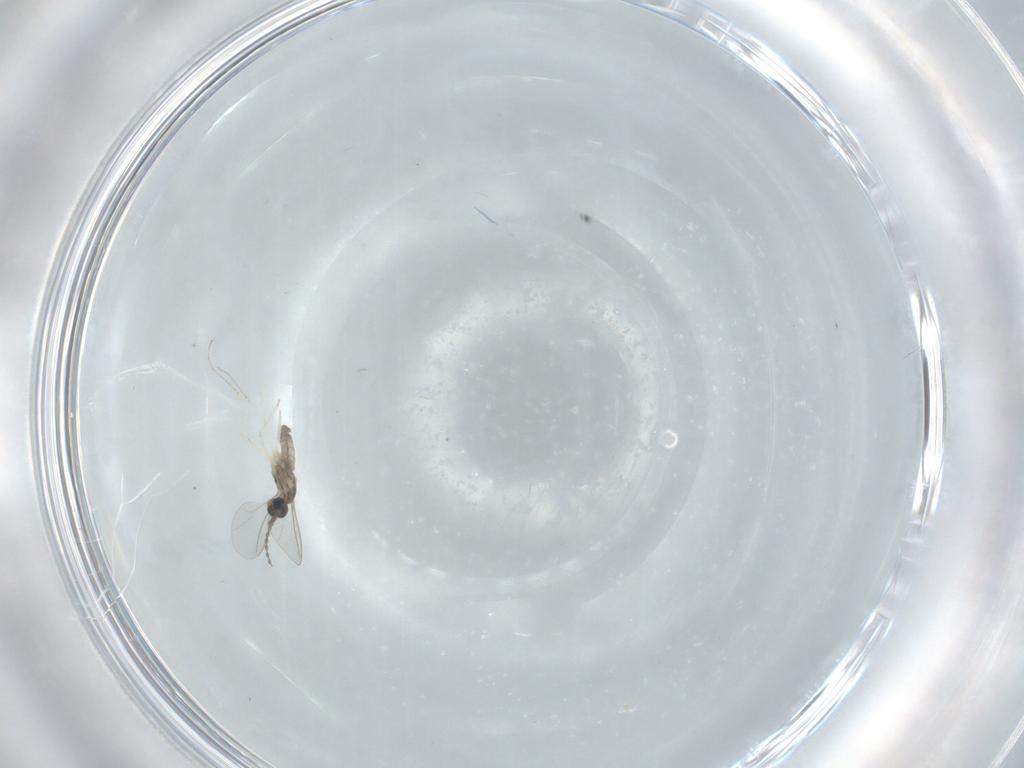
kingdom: Animalia
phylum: Arthropoda
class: Insecta
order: Diptera
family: Cecidomyiidae
